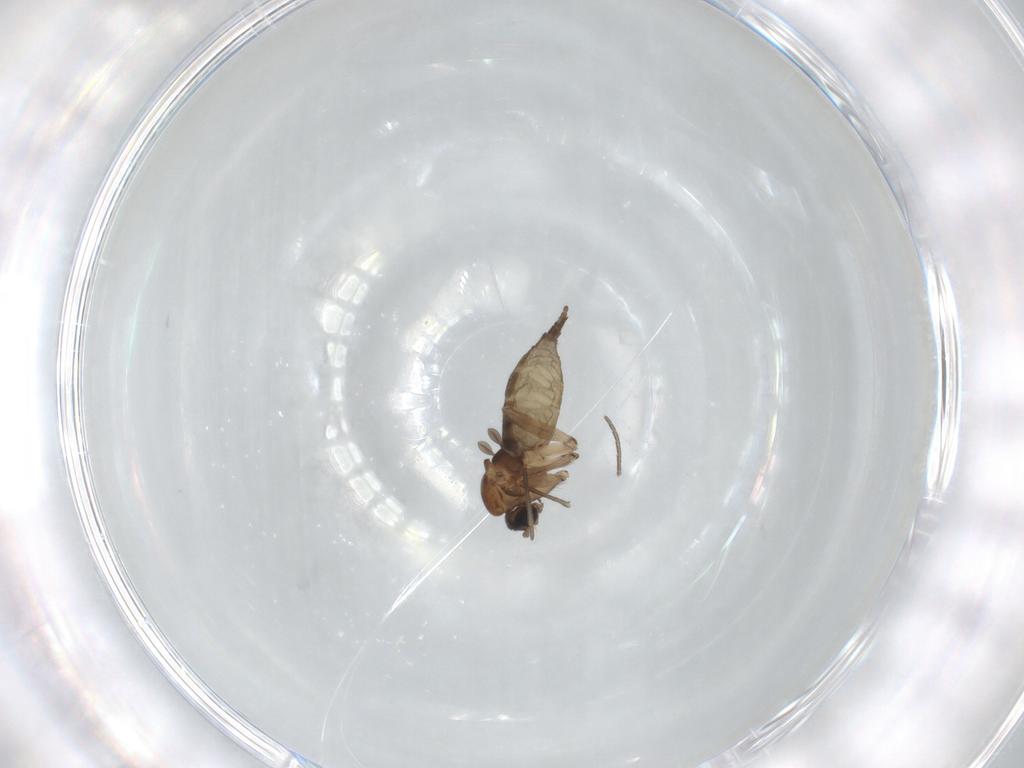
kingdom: Animalia
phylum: Arthropoda
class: Insecta
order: Diptera
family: Sciaridae
